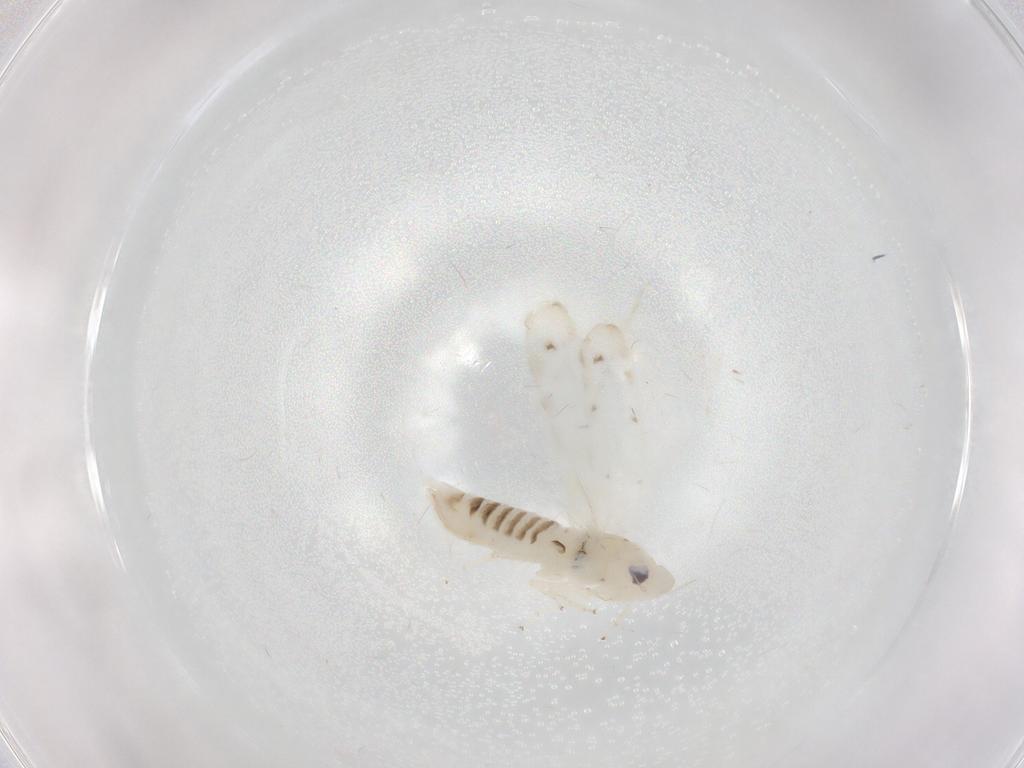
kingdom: Animalia
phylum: Arthropoda
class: Insecta
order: Hemiptera
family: Cicadellidae
